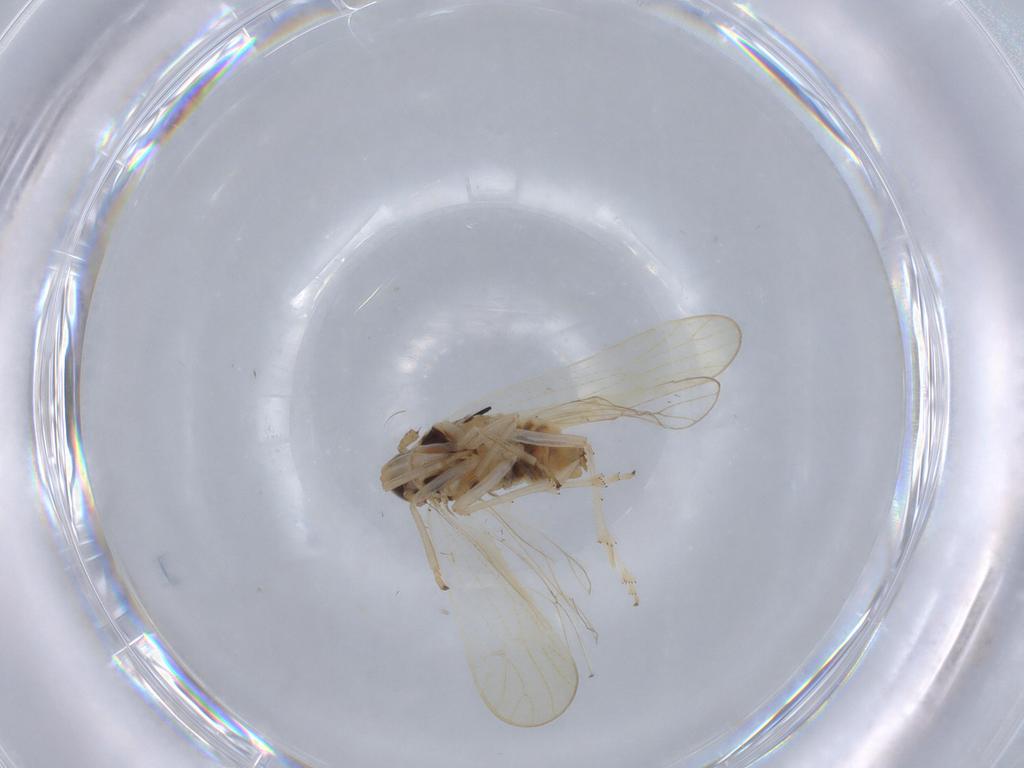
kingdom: Animalia
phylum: Arthropoda
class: Insecta
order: Hemiptera
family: Delphacidae
